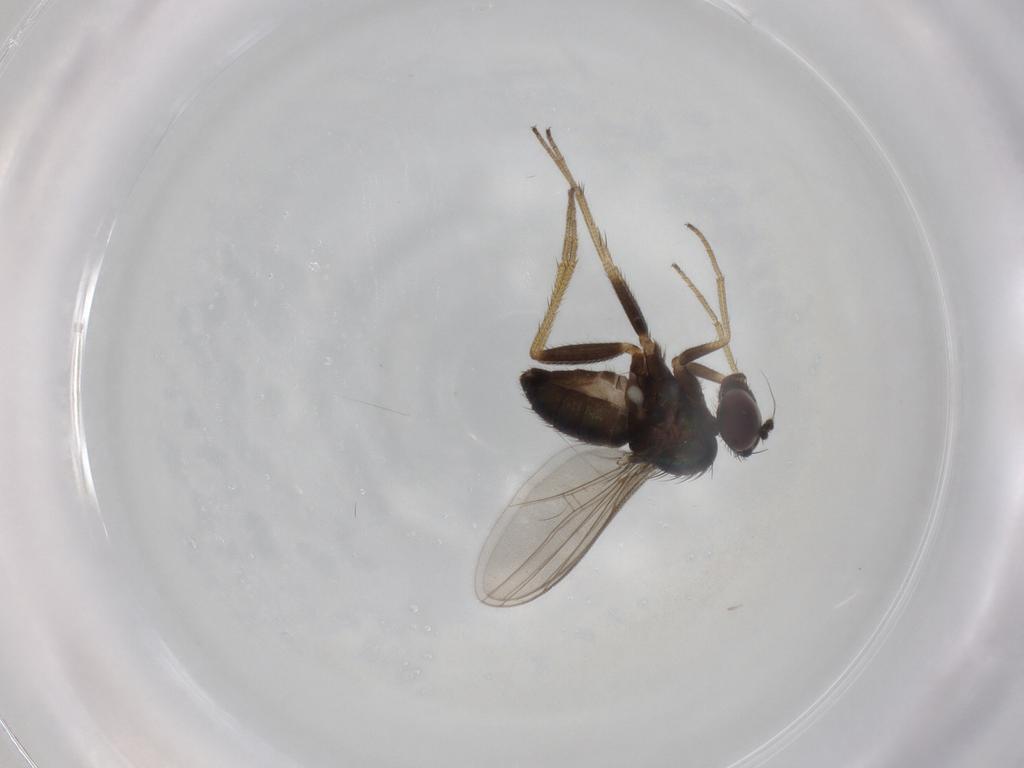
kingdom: Animalia
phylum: Arthropoda
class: Insecta
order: Diptera
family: Dolichopodidae
